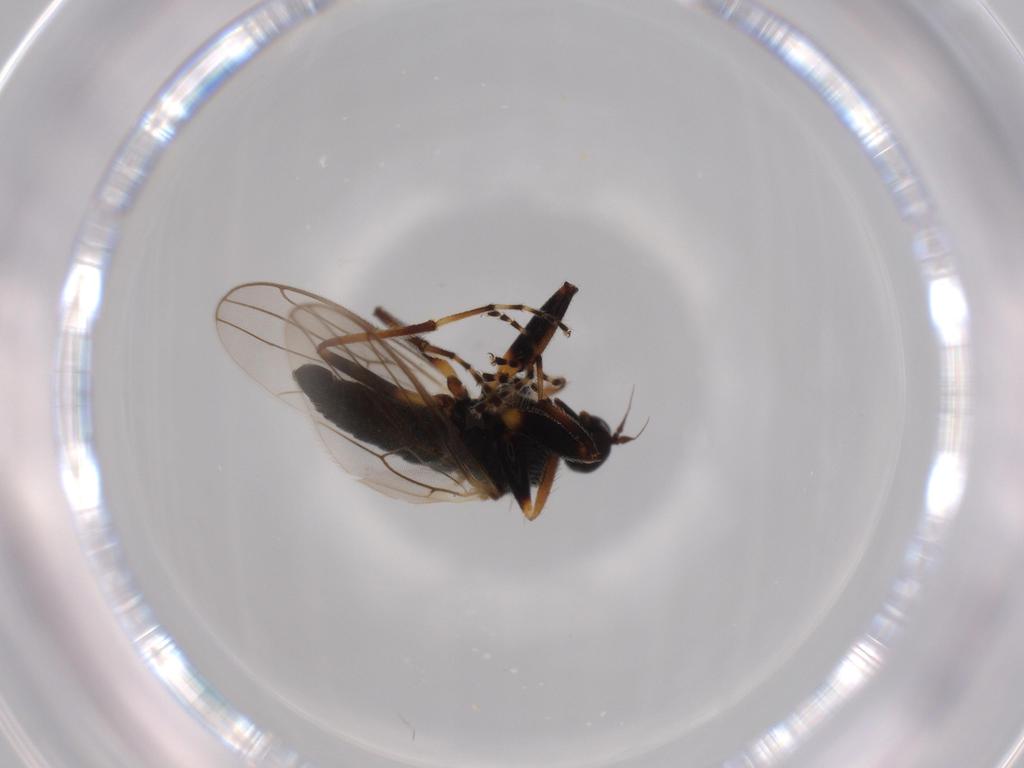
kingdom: Animalia
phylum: Arthropoda
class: Insecta
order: Diptera
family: Hybotidae
